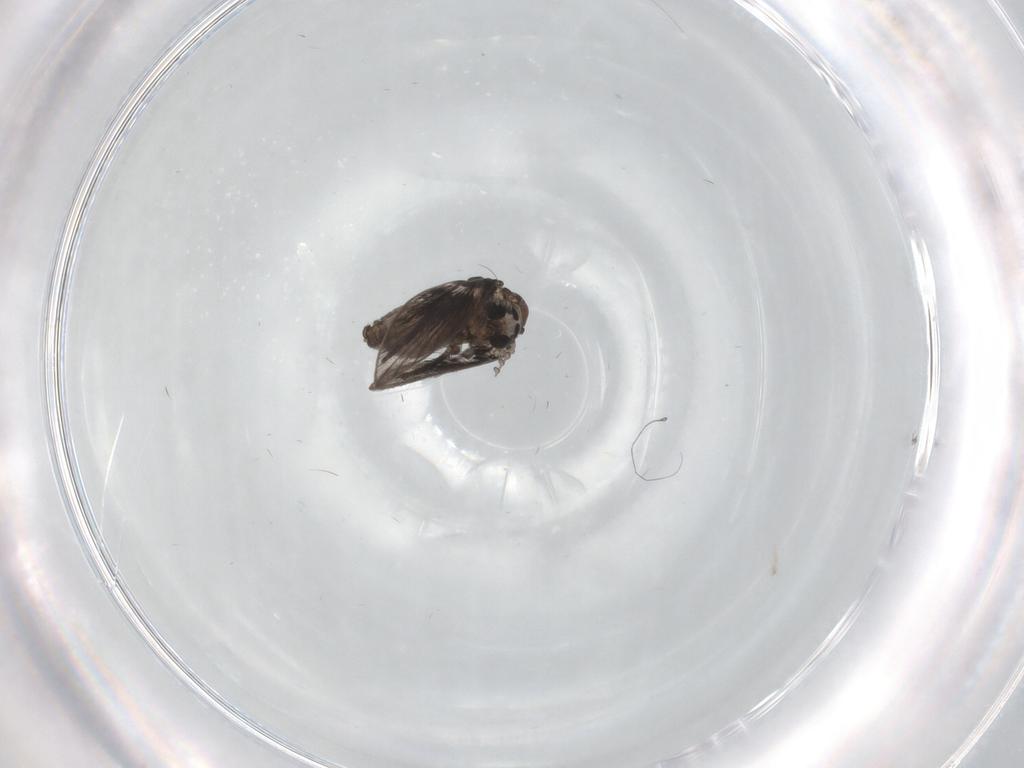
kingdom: Animalia
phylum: Arthropoda
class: Insecta
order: Diptera
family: Psychodidae
